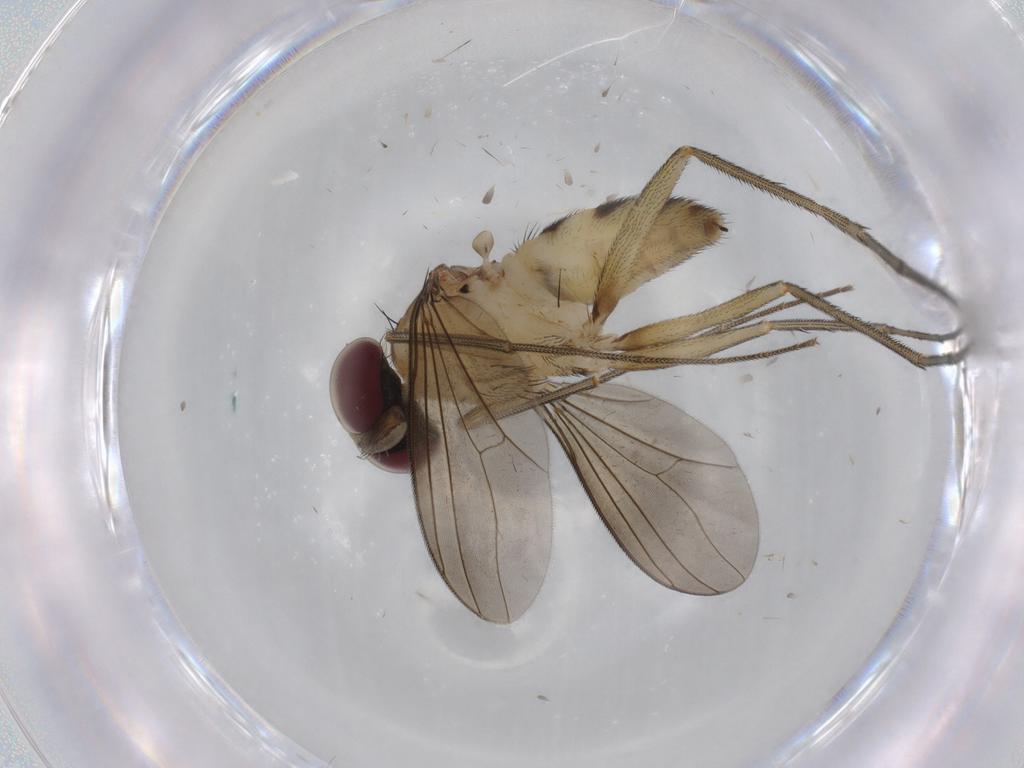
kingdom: Animalia
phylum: Arthropoda
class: Insecta
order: Diptera
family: Dolichopodidae
